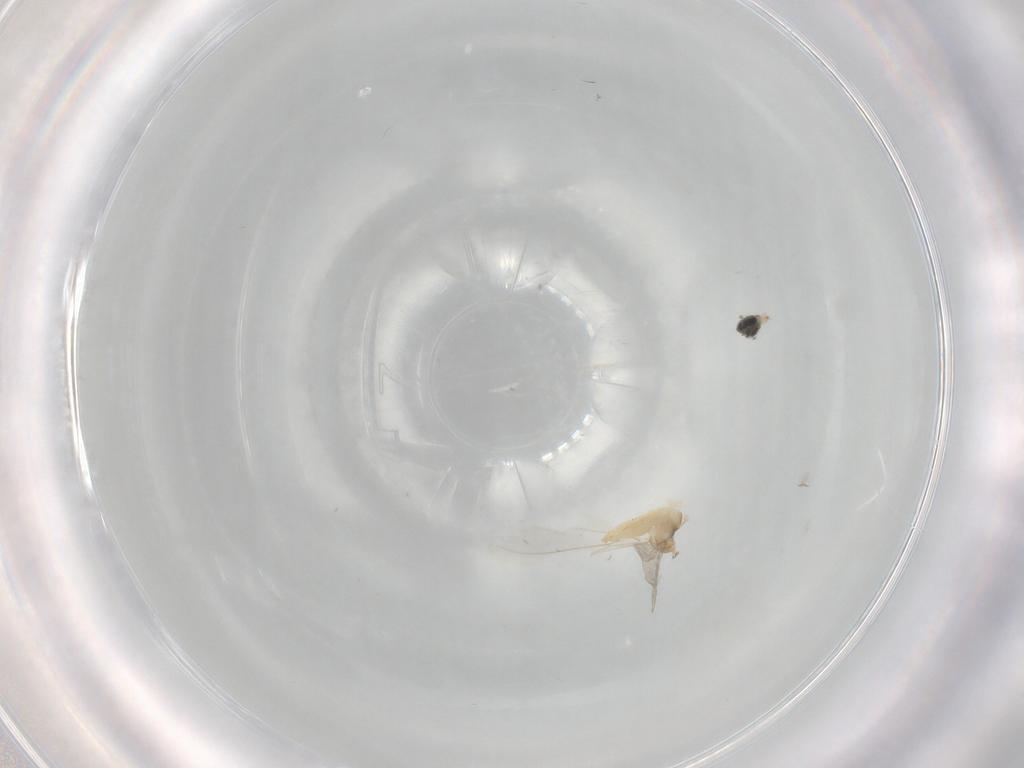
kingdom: Animalia
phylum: Arthropoda
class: Insecta
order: Diptera
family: Cecidomyiidae
